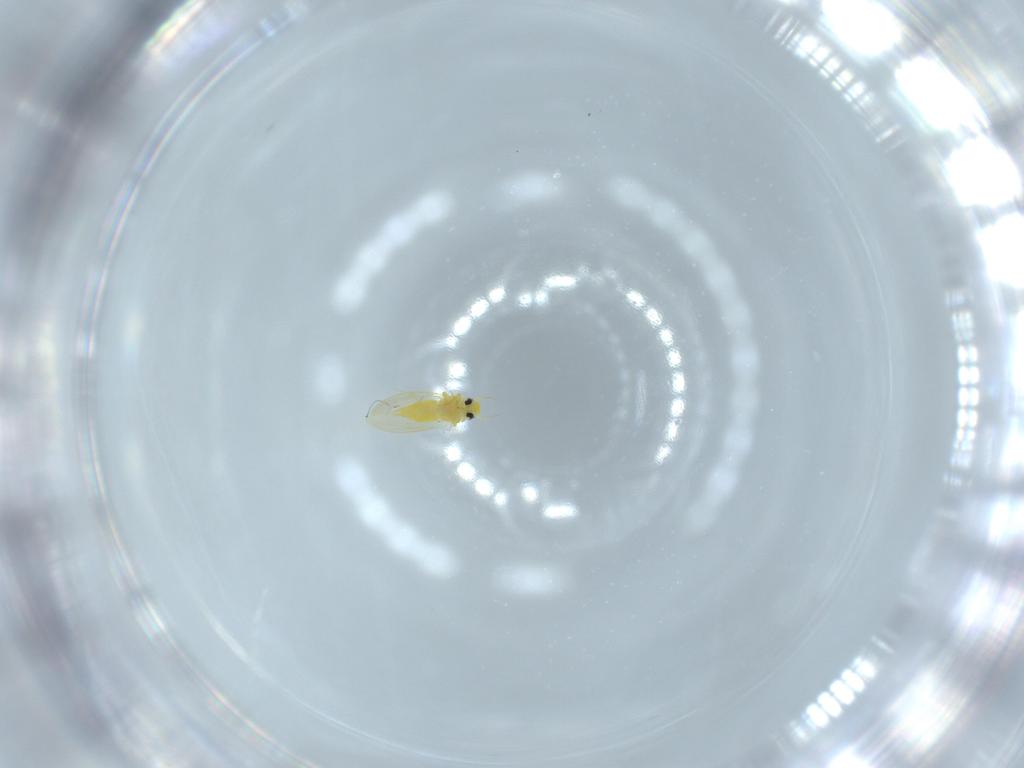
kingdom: Animalia
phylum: Arthropoda
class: Insecta
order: Hemiptera
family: Aleyrodidae
